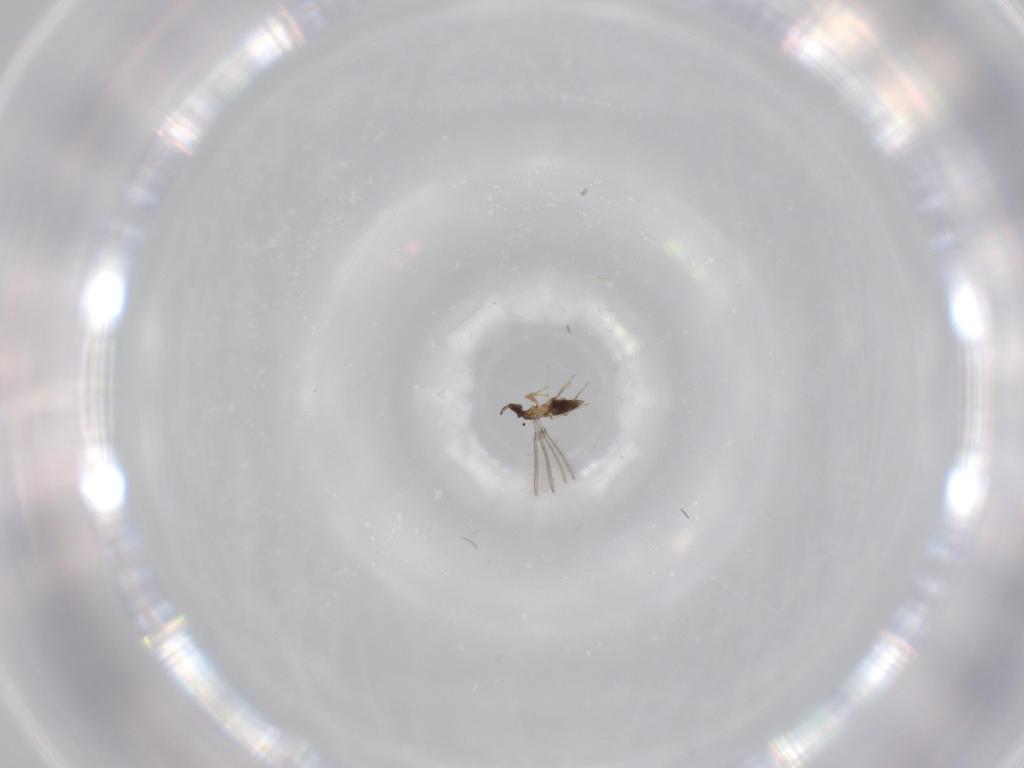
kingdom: Animalia
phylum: Arthropoda
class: Insecta
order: Hymenoptera
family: Mymaridae
